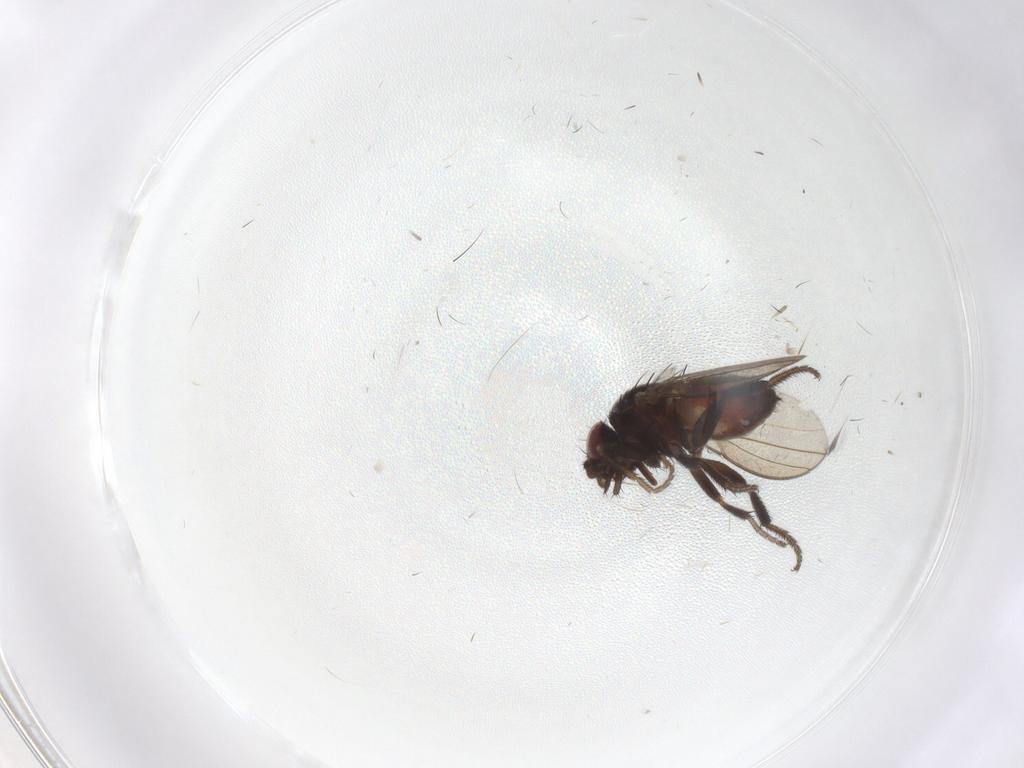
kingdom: Animalia
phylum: Arthropoda
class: Insecta
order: Diptera
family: Milichiidae
